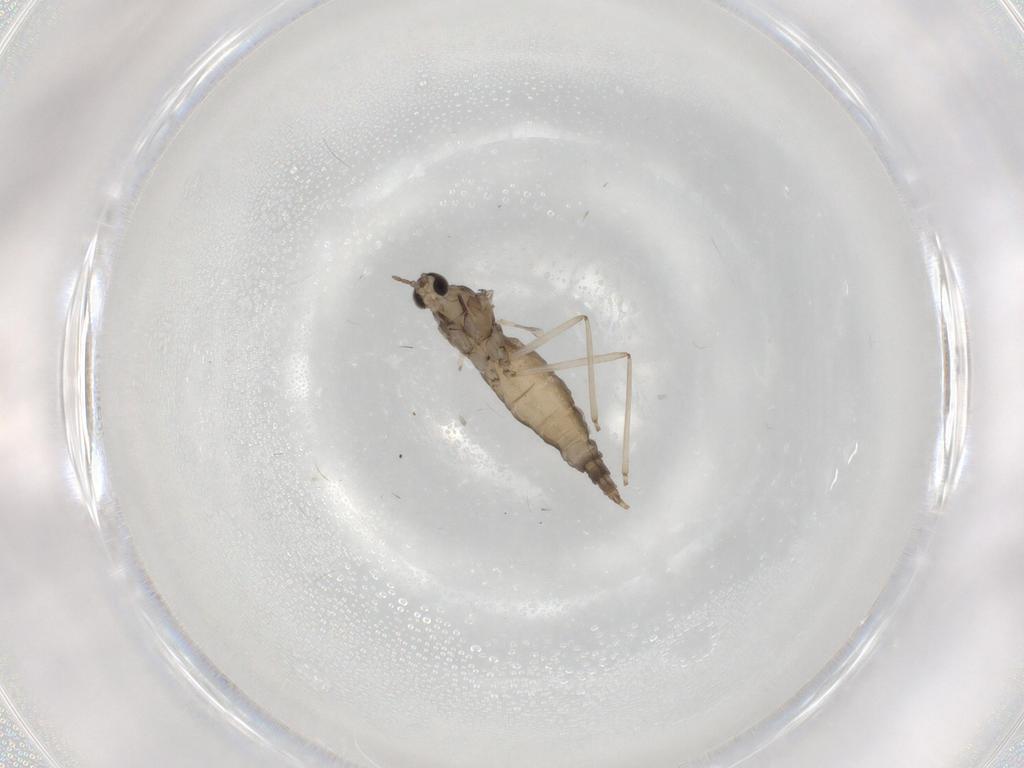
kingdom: Animalia
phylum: Arthropoda
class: Insecta
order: Diptera
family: Cecidomyiidae
